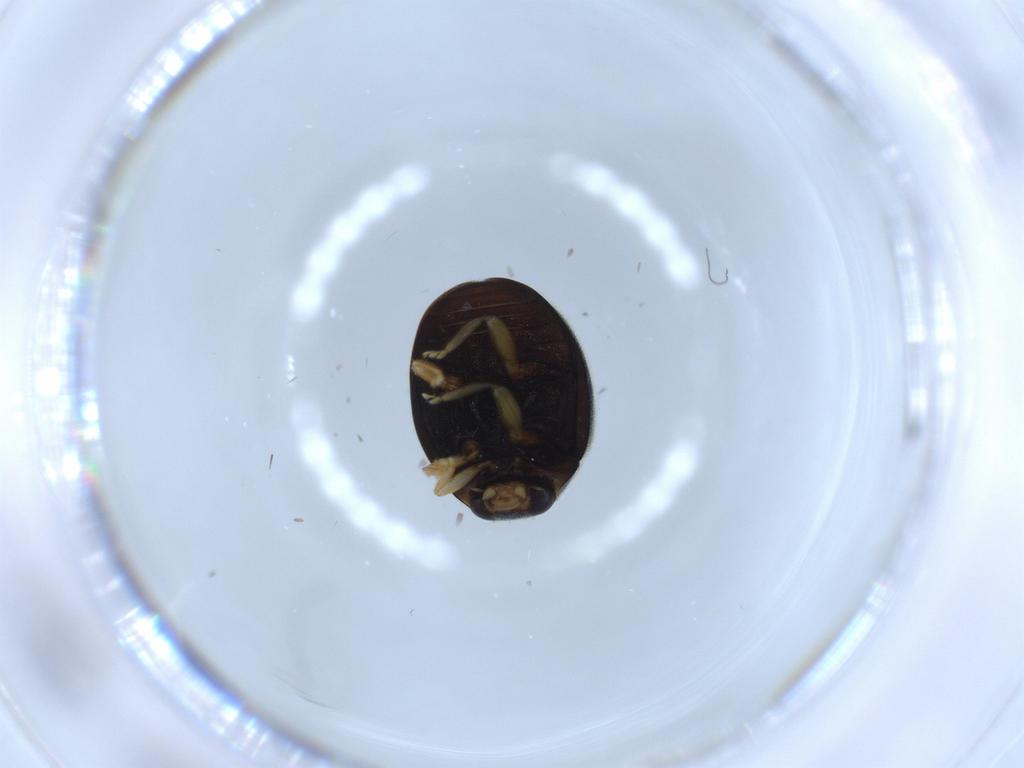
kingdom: Animalia
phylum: Arthropoda
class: Insecta
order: Coleoptera
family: Coccinellidae
